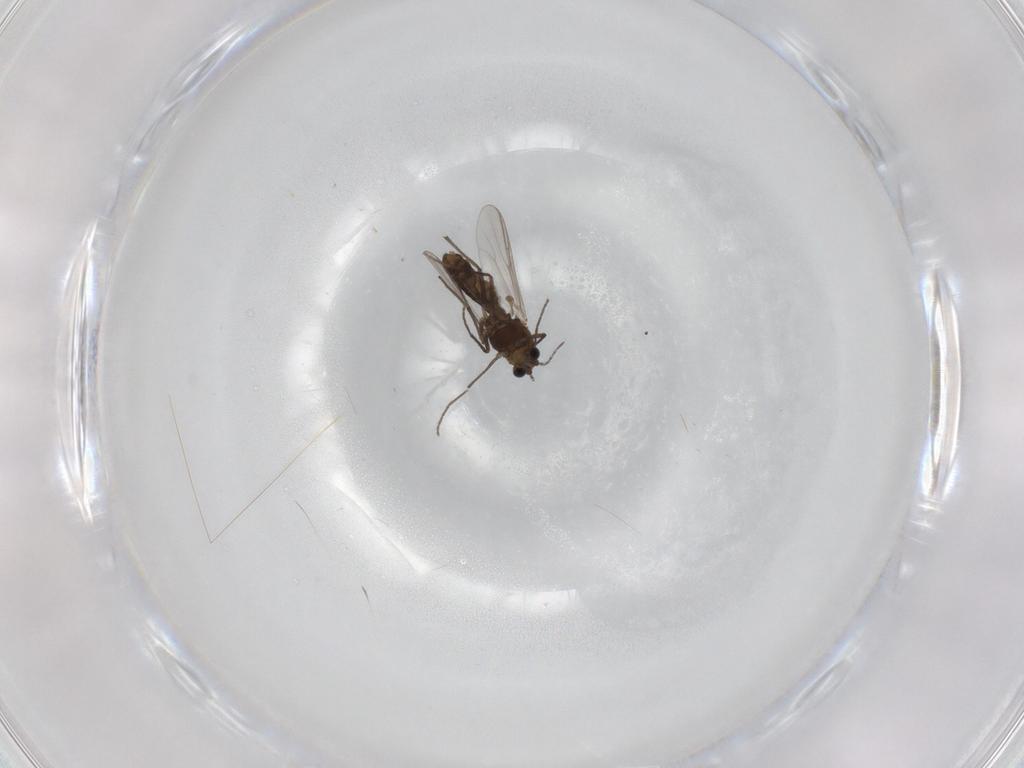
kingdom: Animalia
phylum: Arthropoda
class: Insecta
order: Diptera
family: Chironomidae
